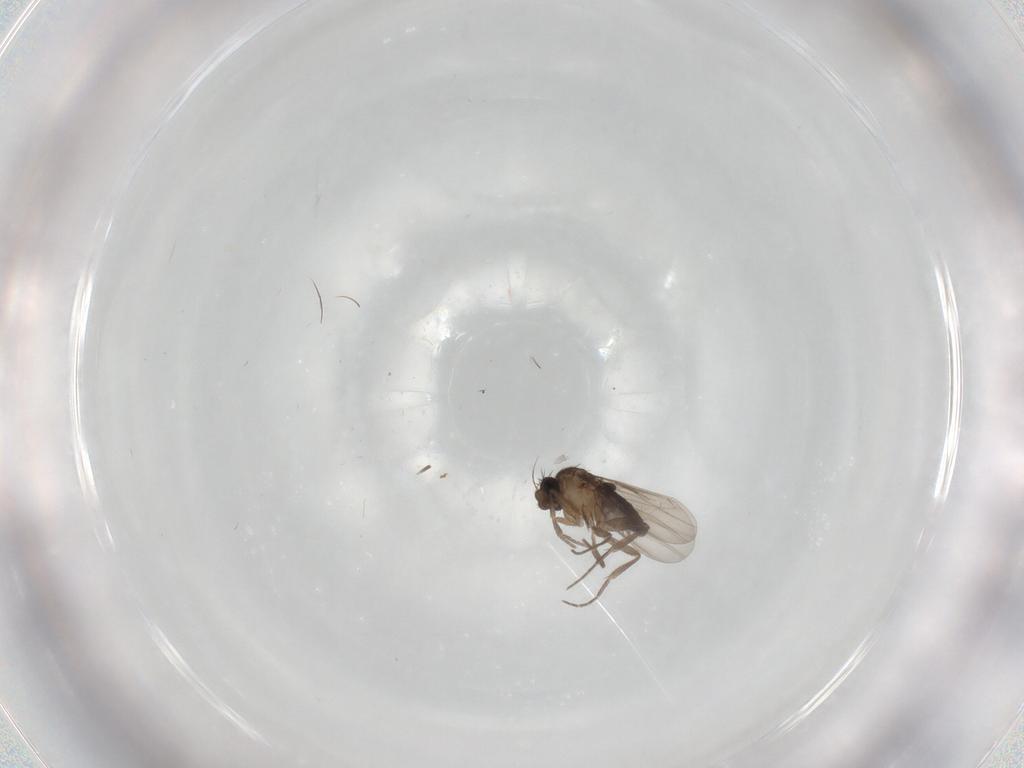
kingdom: Animalia
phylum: Arthropoda
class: Insecta
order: Diptera
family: Phoridae
